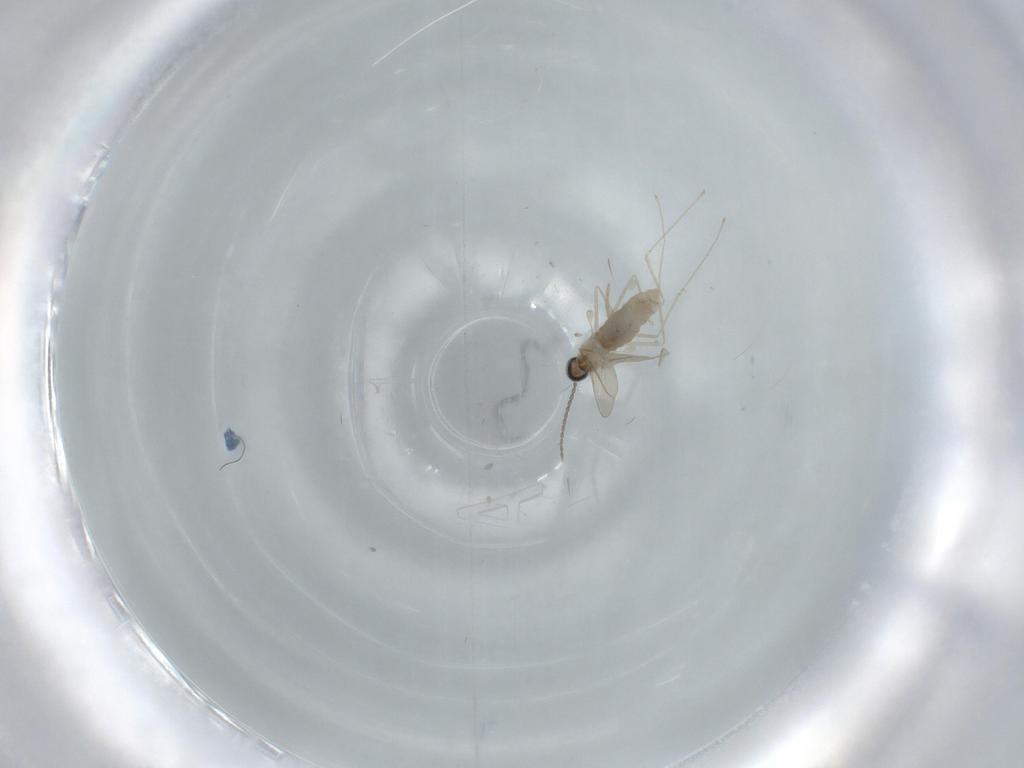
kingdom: Animalia
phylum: Arthropoda
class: Insecta
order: Diptera
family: Cecidomyiidae
